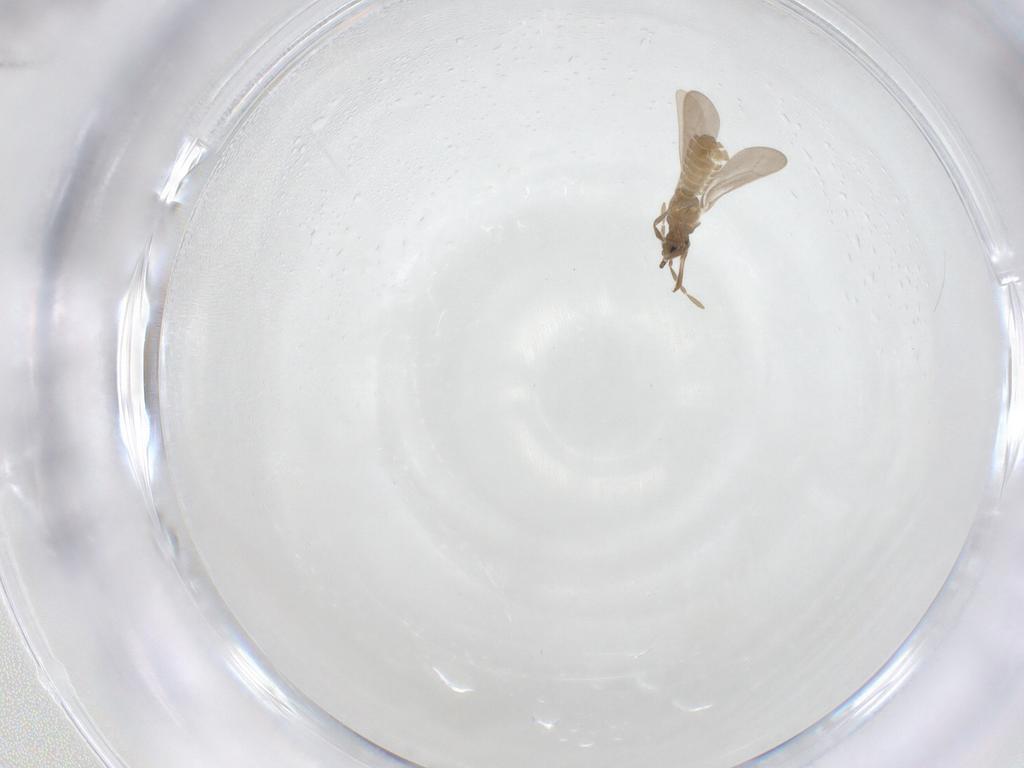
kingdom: Animalia
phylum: Arthropoda
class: Insecta
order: Hemiptera
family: Enicocephalidae
